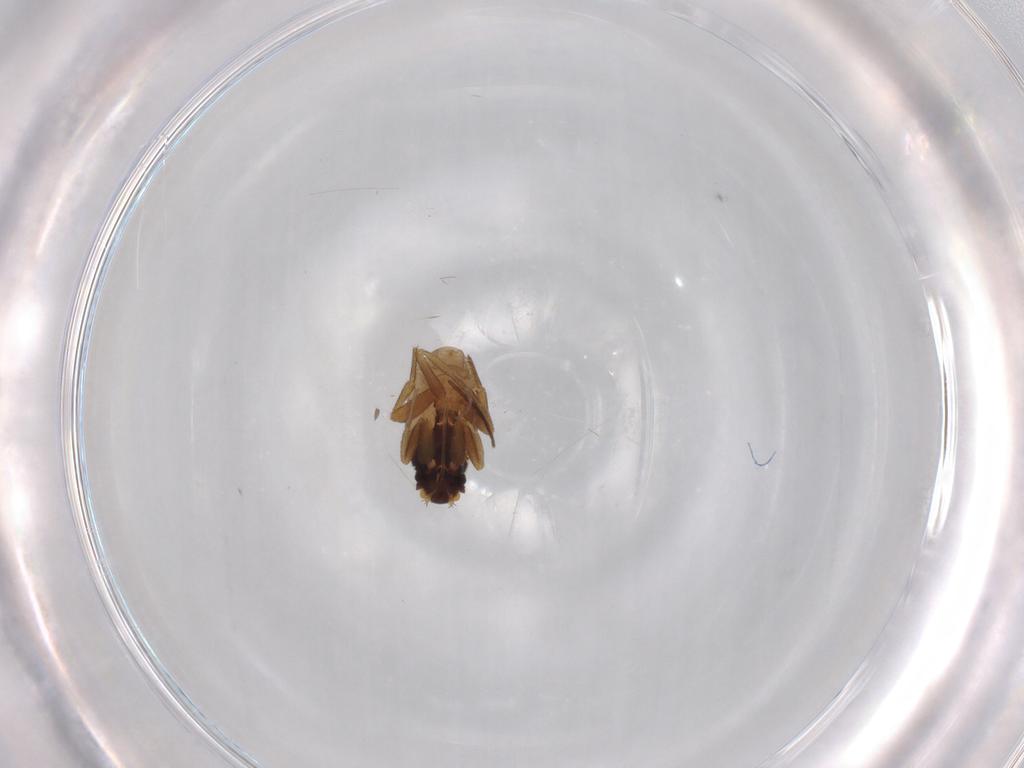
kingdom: Animalia
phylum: Arthropoda
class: Insecta
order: Diptera
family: Phoridae
